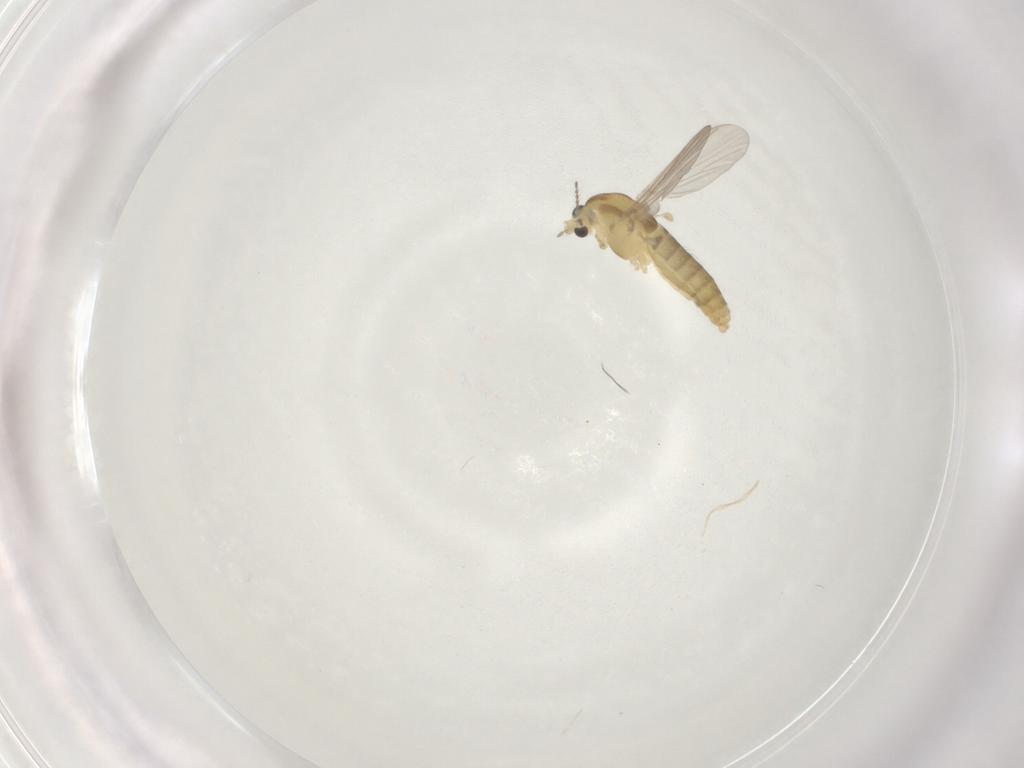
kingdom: Animalia
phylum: Arthropoda
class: Insecta
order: Diptera
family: Chironomidae
